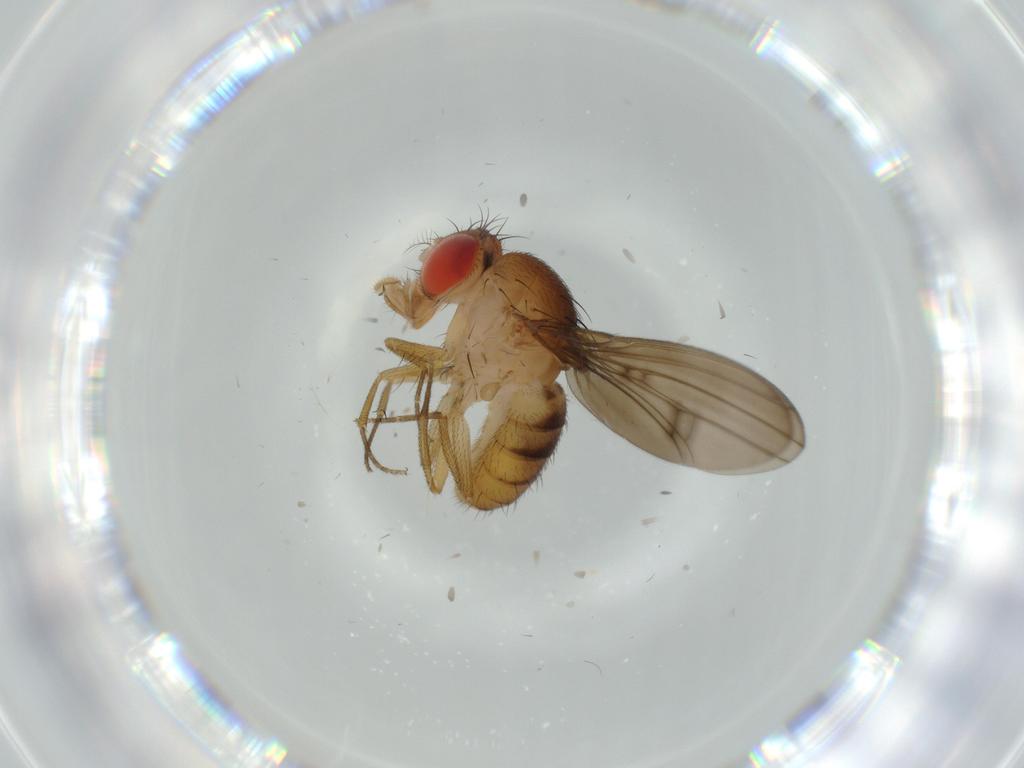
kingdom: Animalia
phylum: Arthropoda
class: Insecta
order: Diptera
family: Drosophilidae
